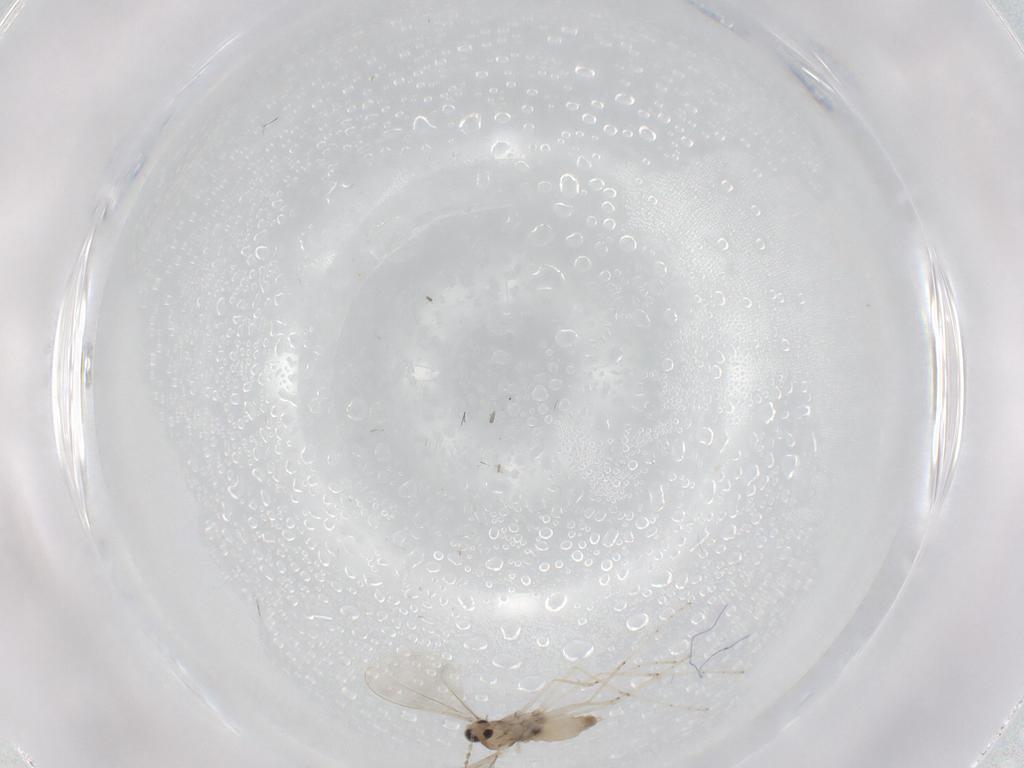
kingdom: Animalia
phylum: Arthropoda
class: Insecta
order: Diptera
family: Cecidomyiidae
